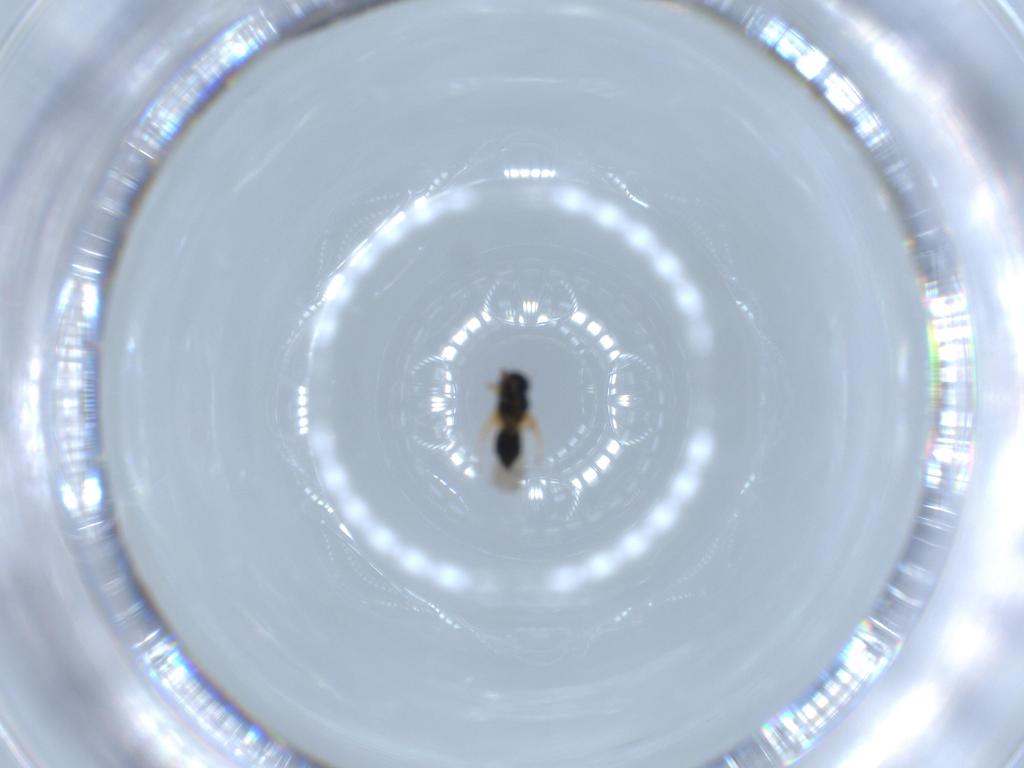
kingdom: Animalia
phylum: Arthropoda
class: Insecta
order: Hymenoptera
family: Scelionidae
